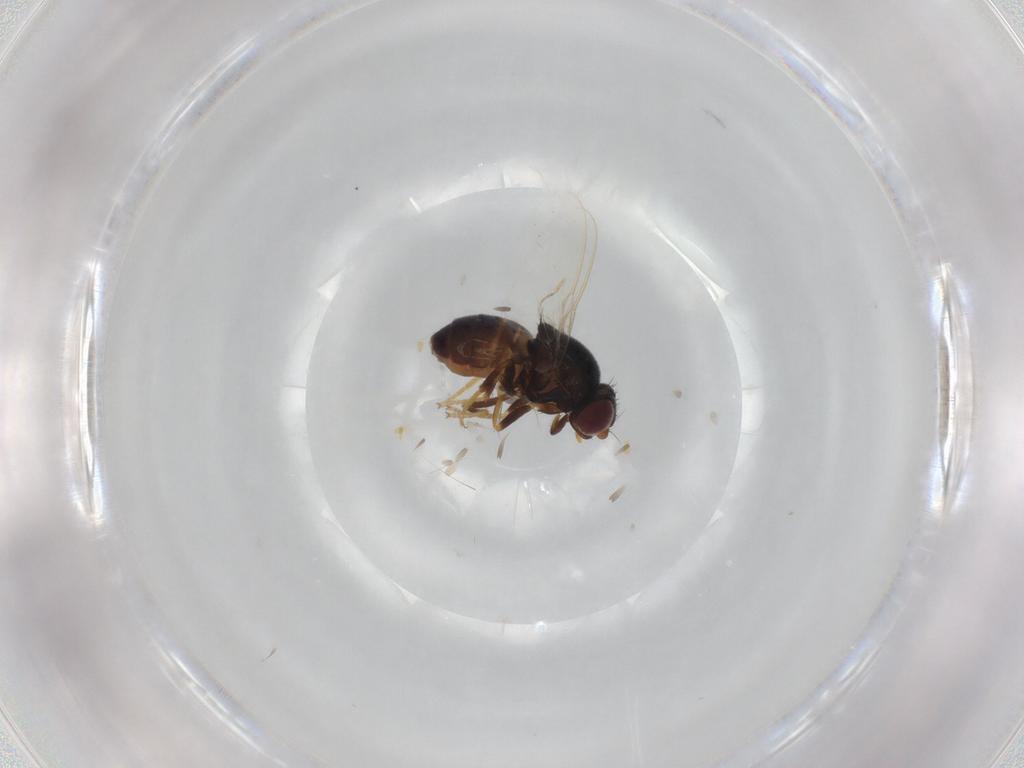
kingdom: Animalia
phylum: Arthropoda
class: Insecta
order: Diptera
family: Chloropidae
